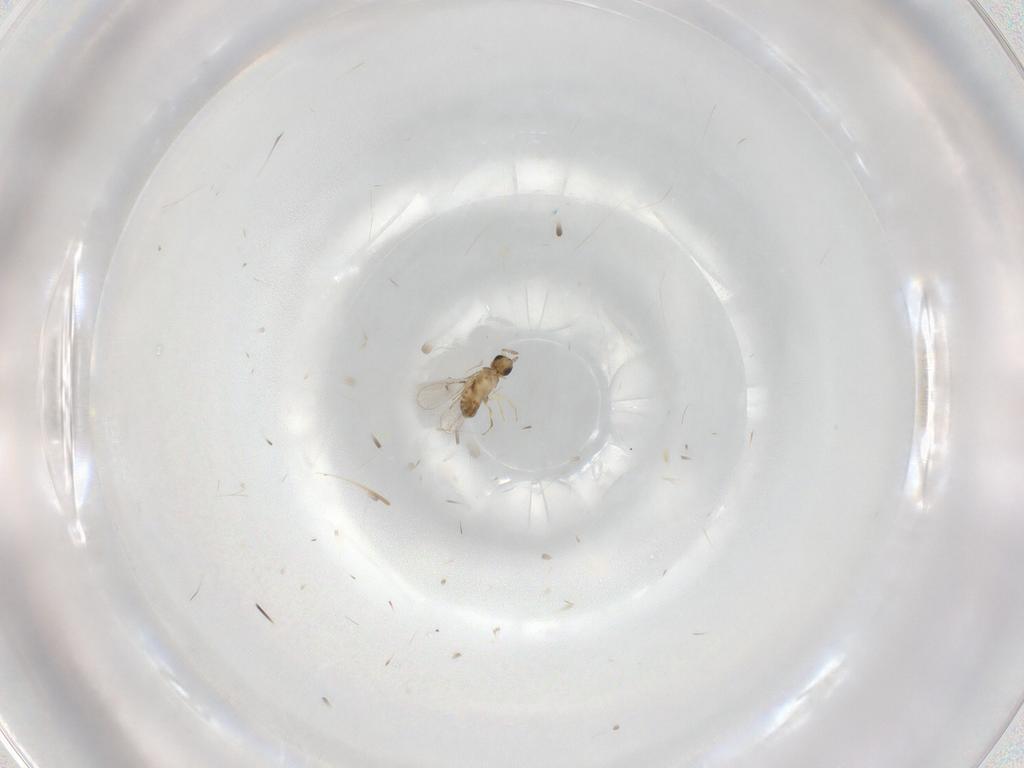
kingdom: Animalia
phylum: Arthropoda
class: Insecta
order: Hymenoptera
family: Trichogrammatidae
